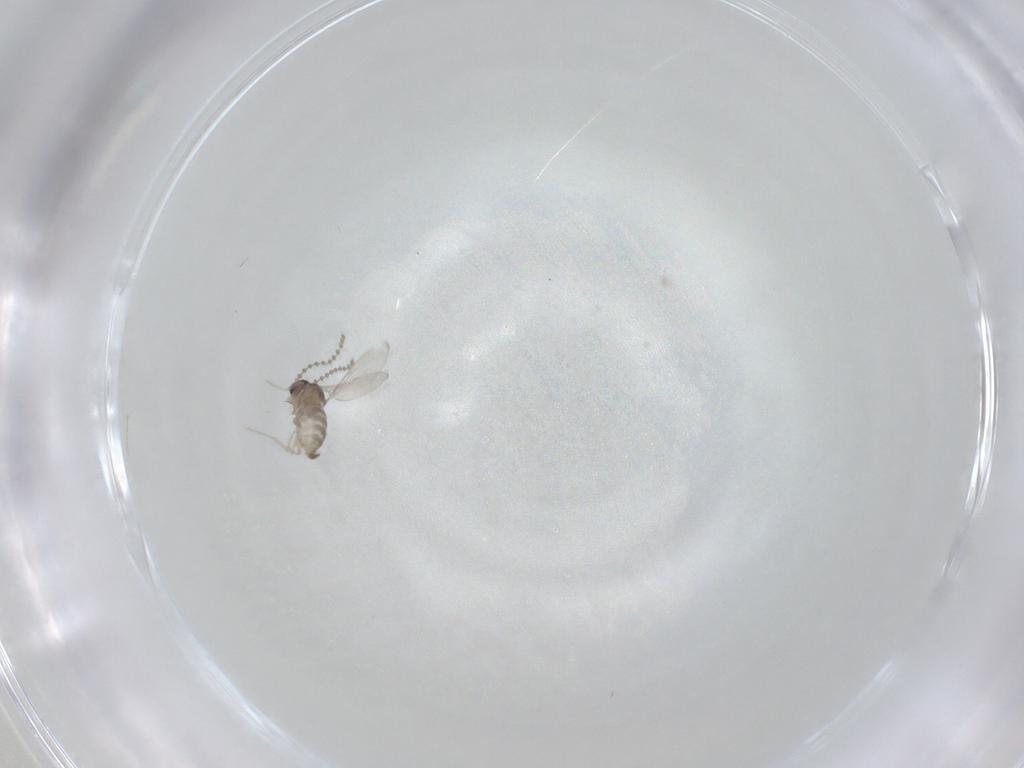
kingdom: Animalia
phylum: Arthropoda
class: Insecta
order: Diptera
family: Cecidomyiidae
